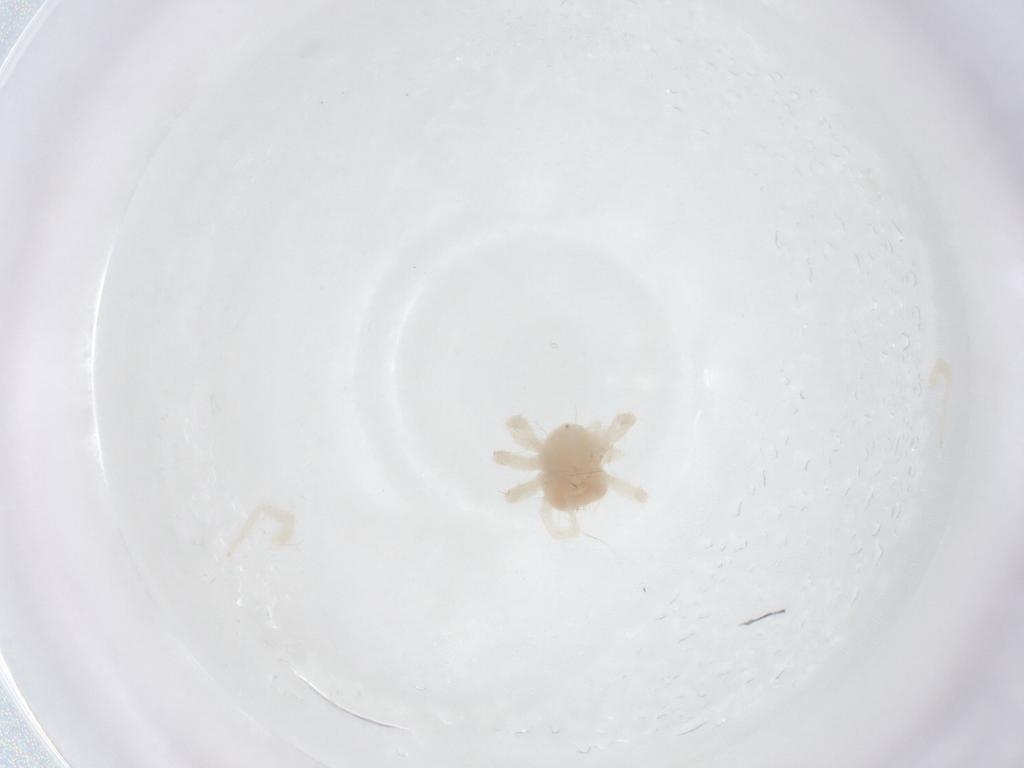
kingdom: Animalia
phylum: Arthropoda
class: Arachnida
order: Trombidiformes
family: Anystidae
